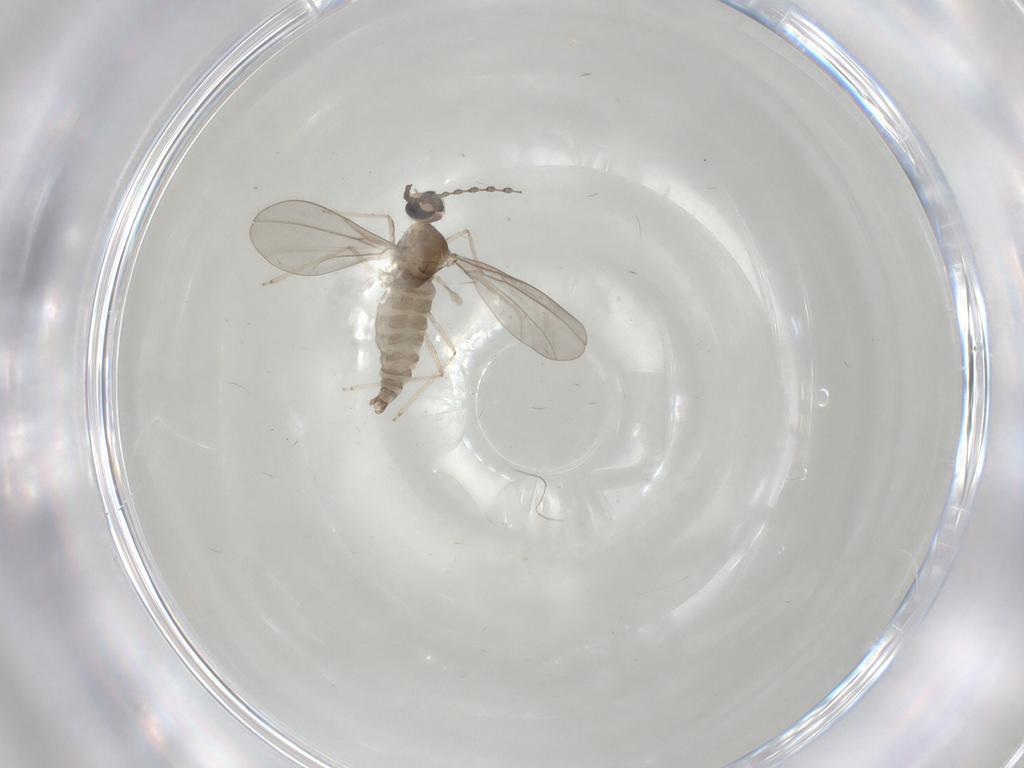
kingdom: Animalia
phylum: Arthropoda
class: Insecta
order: Diptera
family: Cecidomyiidae
